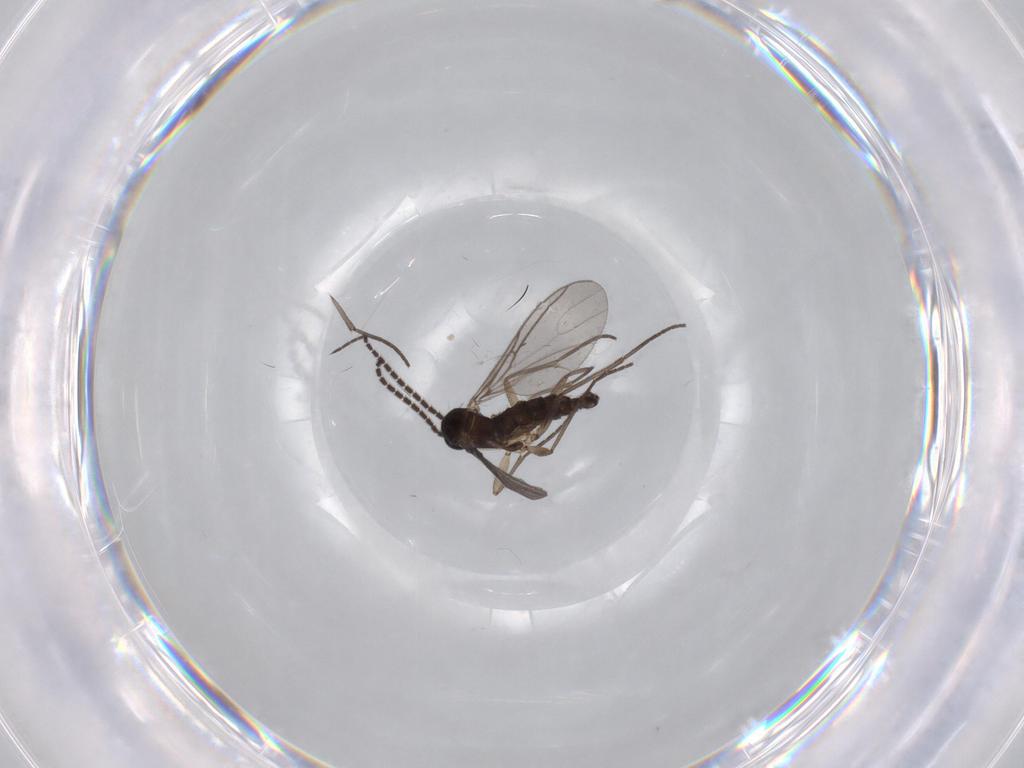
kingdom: Animalia
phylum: Arthropoda
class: Insecta
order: Diptera
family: Sciaridae
